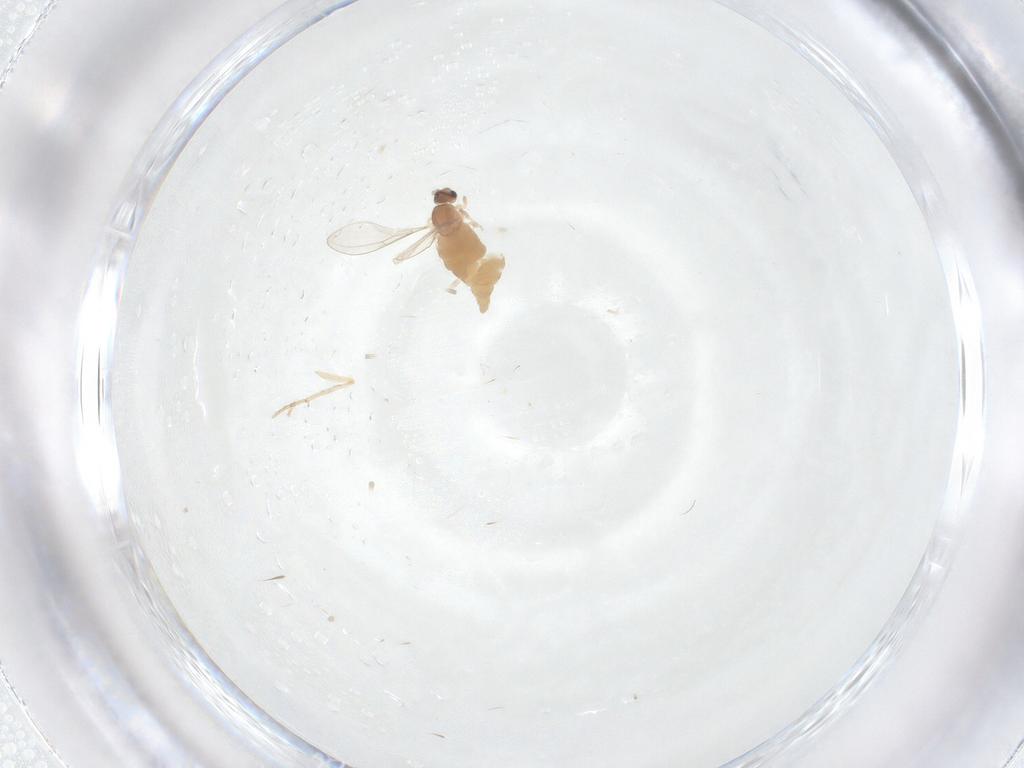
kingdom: Animalia
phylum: Arthropoda
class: Insecta
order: Diptera
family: Cecidomyiidae
